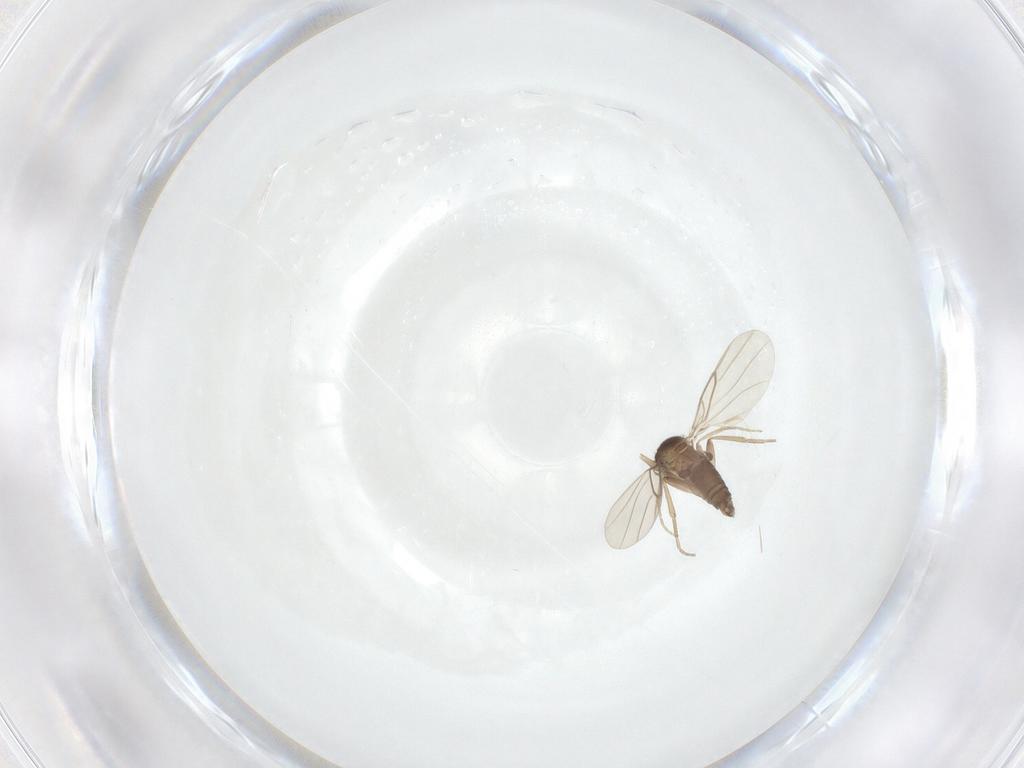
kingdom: Animalia
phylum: Arthropoda
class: Insecta
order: Diptera
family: Phoridae
